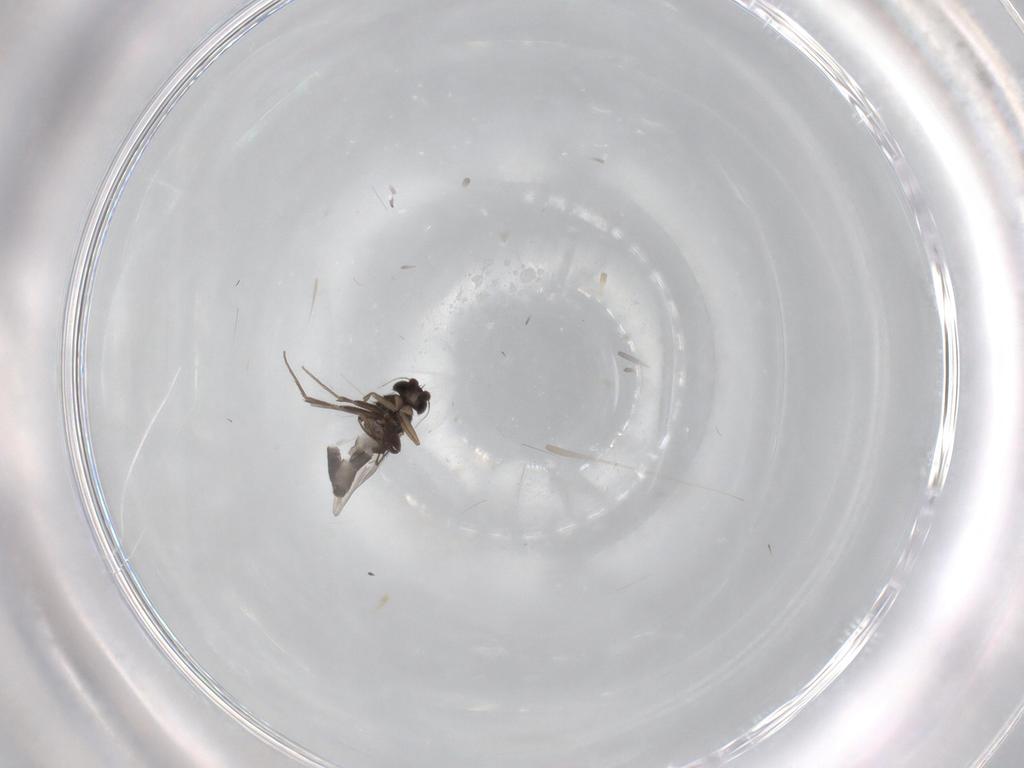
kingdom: Animalia
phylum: Arthropoda
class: Insecta
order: Diptera
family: Phoridae
